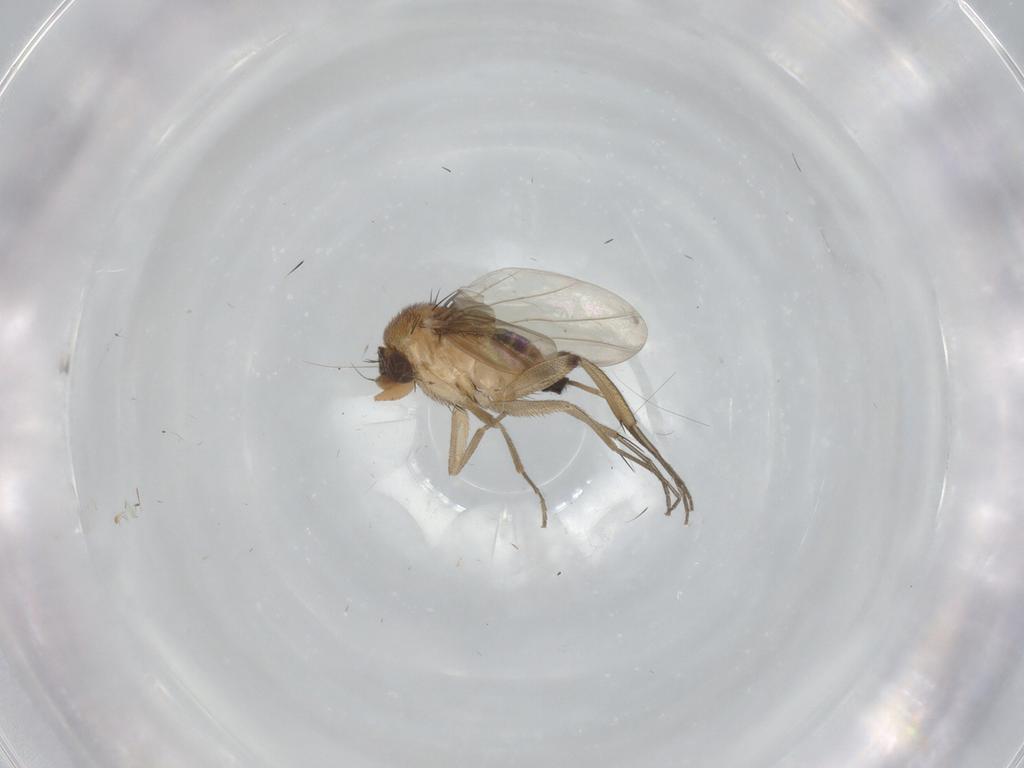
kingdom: Animalia
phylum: Arthropoda
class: Insecta
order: Diptera
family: Phoridae
